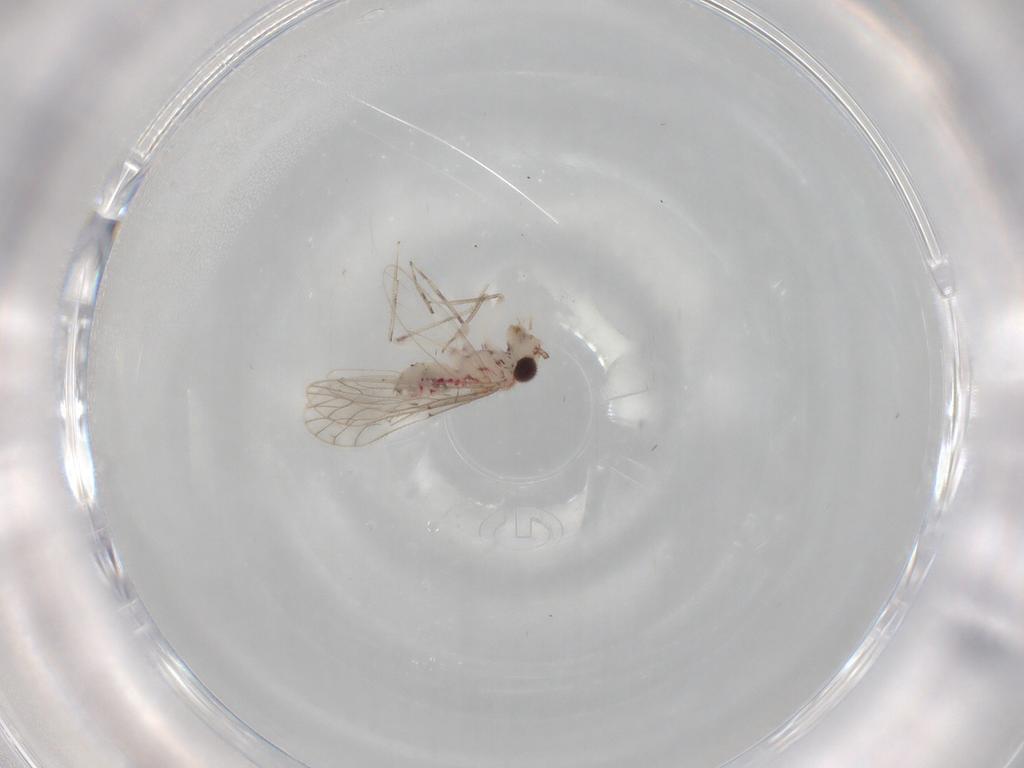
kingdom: Animalia
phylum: Arthropoda
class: Insecta
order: Psocodea
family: Caeciliusidae
